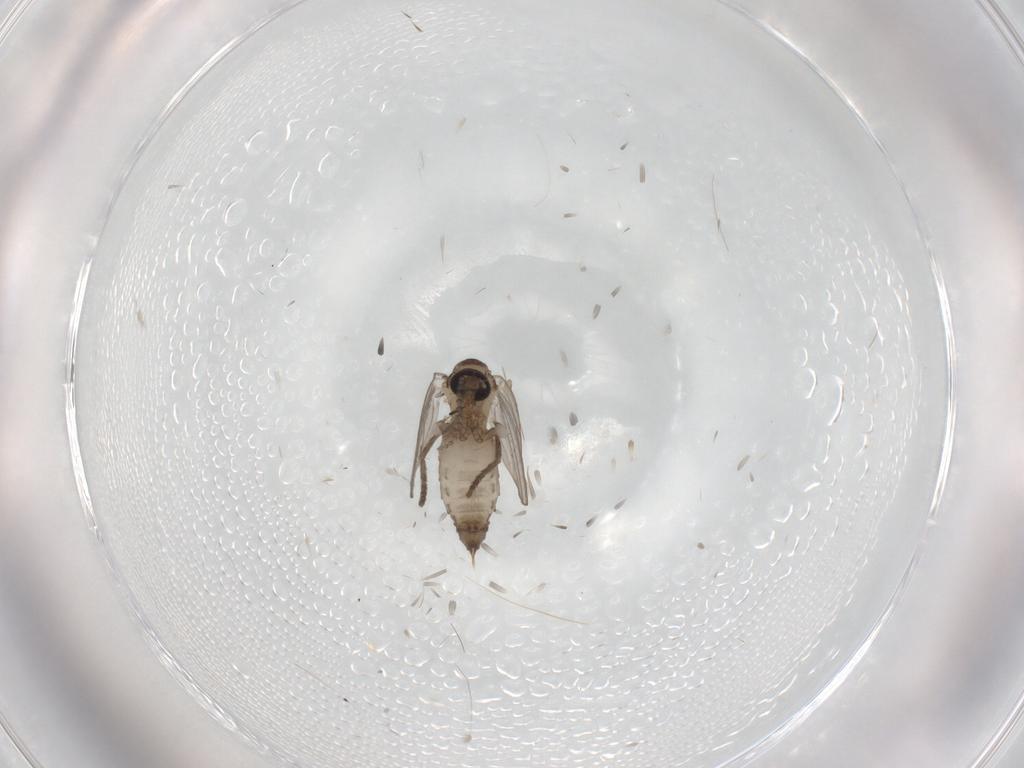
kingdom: Animalia
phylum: Arthropoda
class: Insecta
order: Diptera
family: Psychodidae
